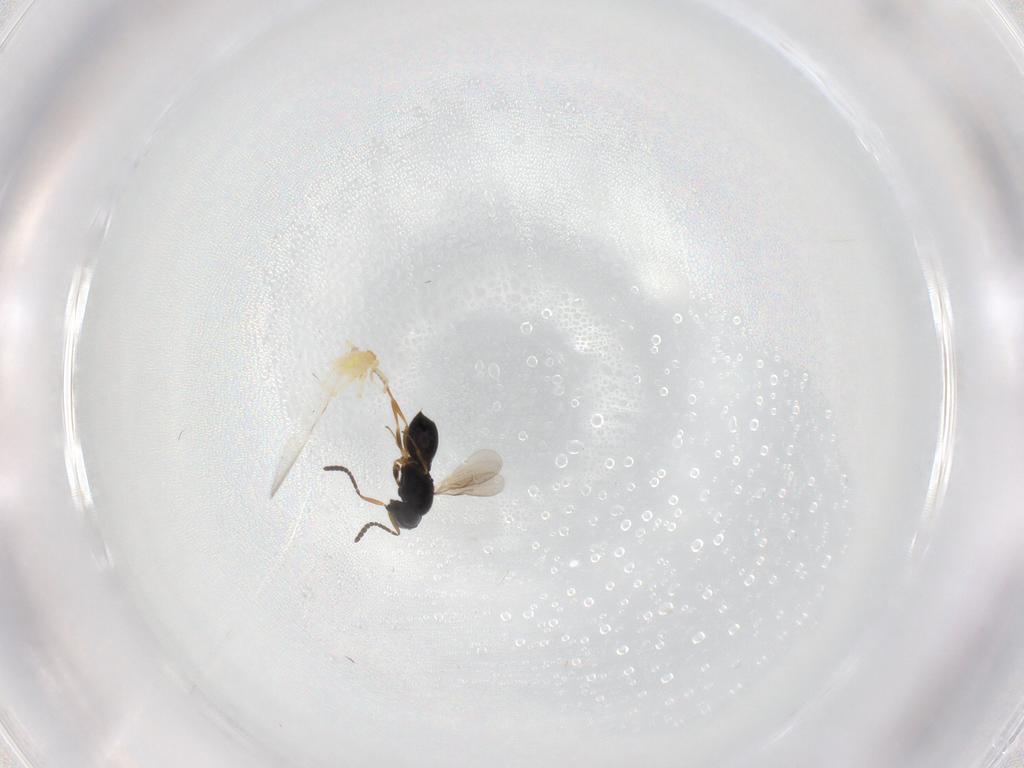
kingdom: Animalia
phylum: Arthropoda
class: Insecta
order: Hymenoptera
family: Scelionidae
